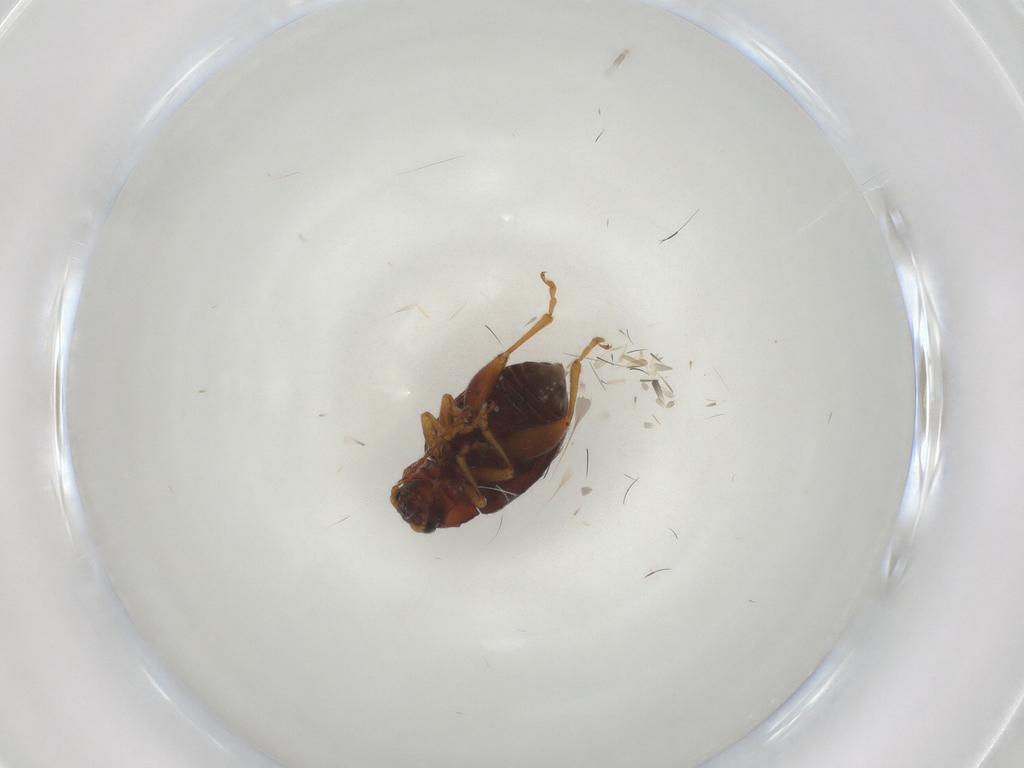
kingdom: Animalia
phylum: Arthropoda
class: Insecta
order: Coleoptera
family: Chrysomelidae
